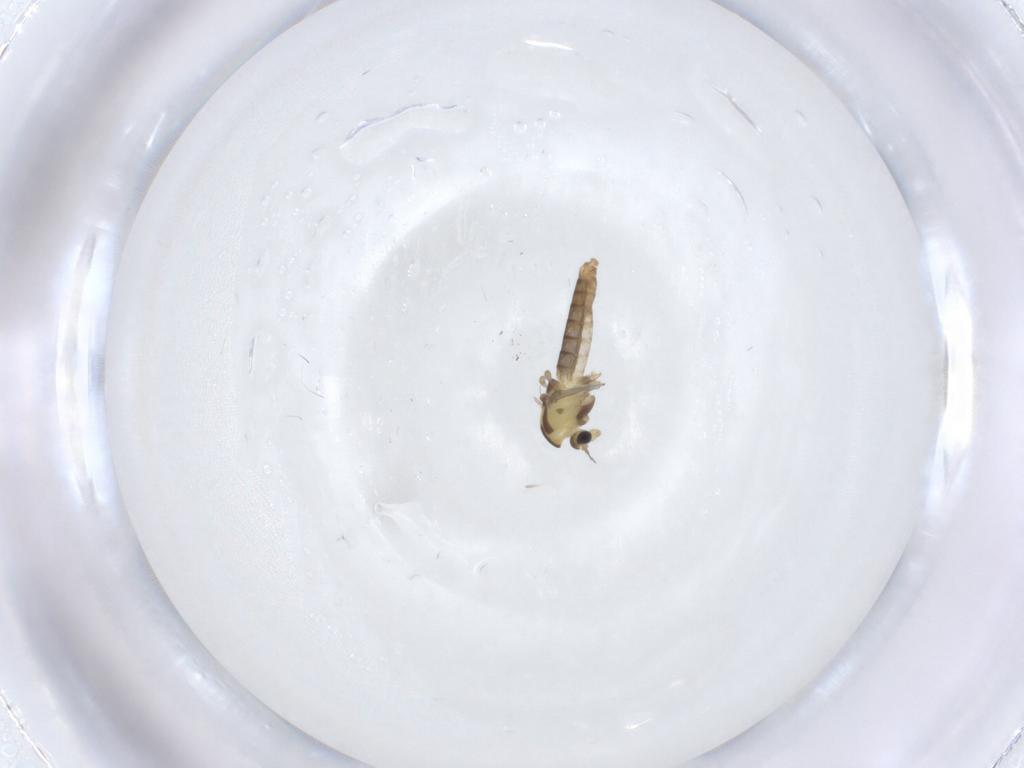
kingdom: Animalia
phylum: Arthropoda
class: Insecta
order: Diptera
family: Chironomidae
